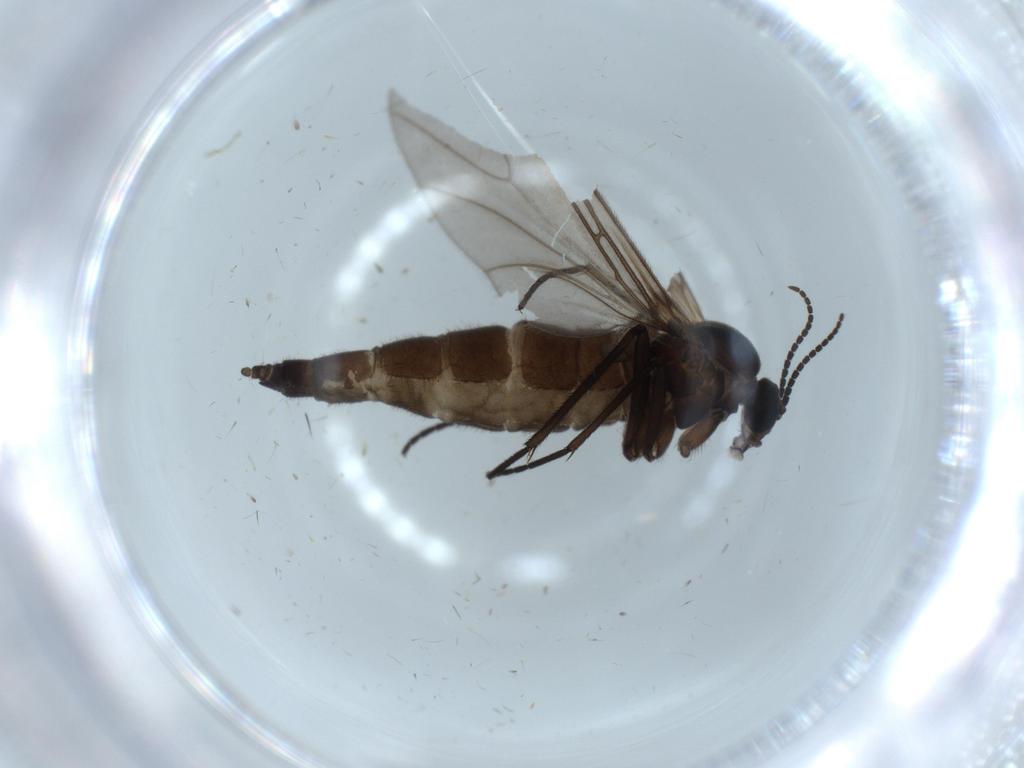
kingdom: Animalia
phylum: Arthropoda
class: Insecta
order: Diptera
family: Sciaridae
